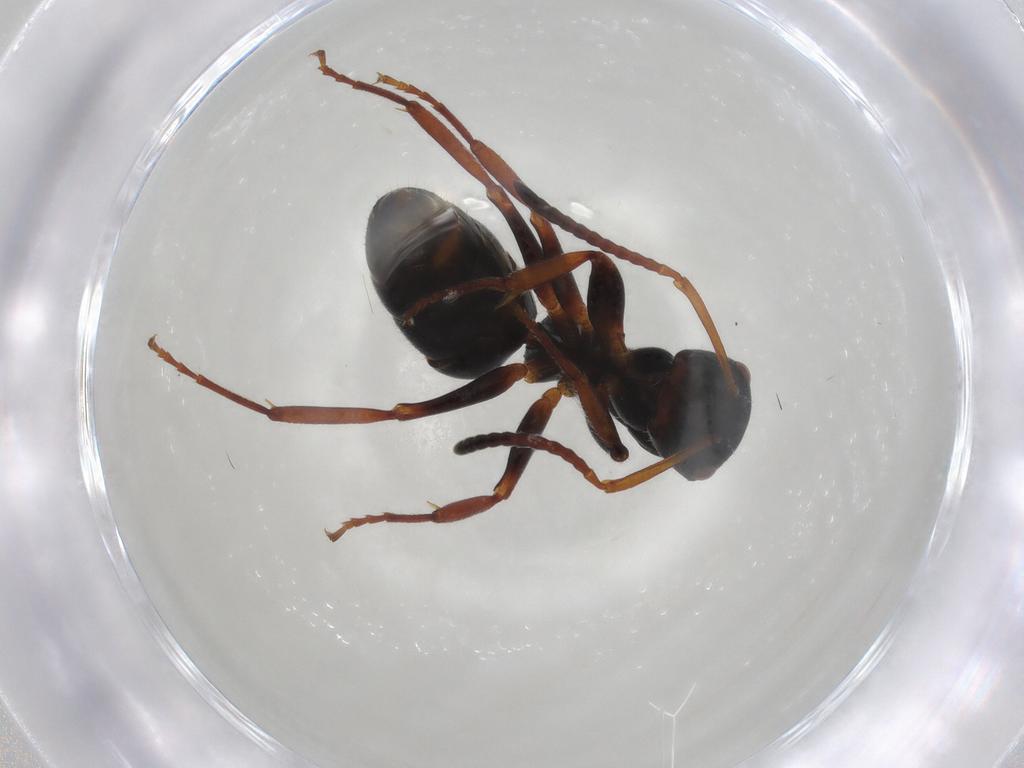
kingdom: Animalia
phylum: Arthropoda
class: Insecta
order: Hymenoptera
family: Formicidae
